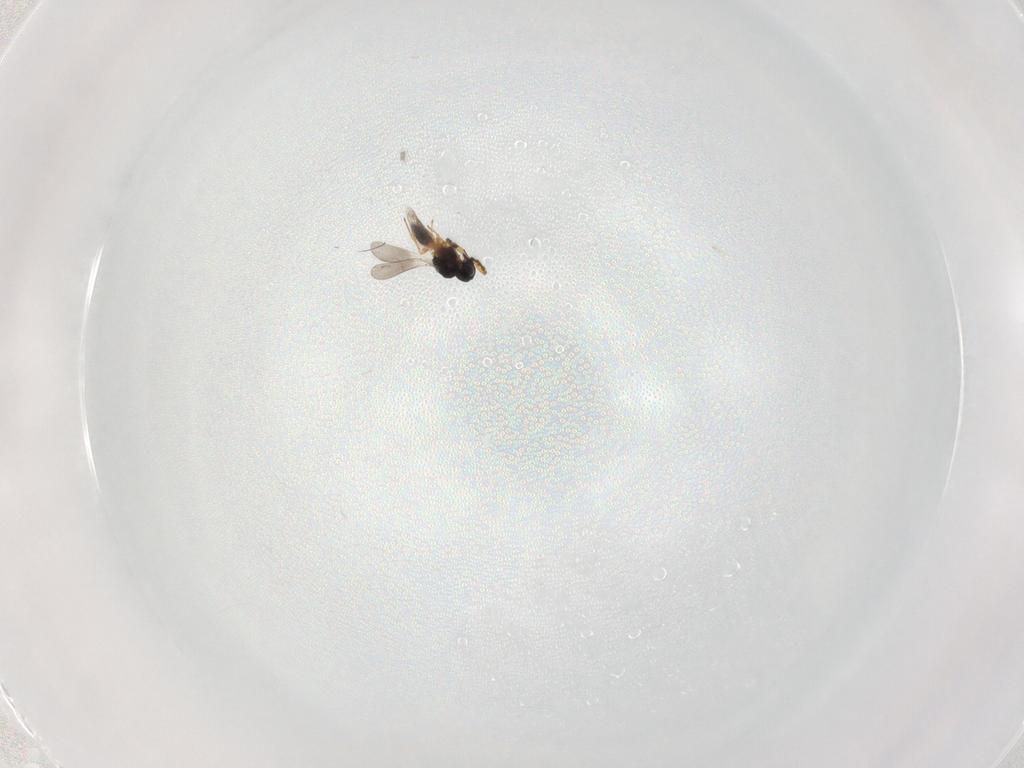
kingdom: Animalia
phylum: Arthropoda
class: Insecta
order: Hymenoptera
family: Platygastridae
